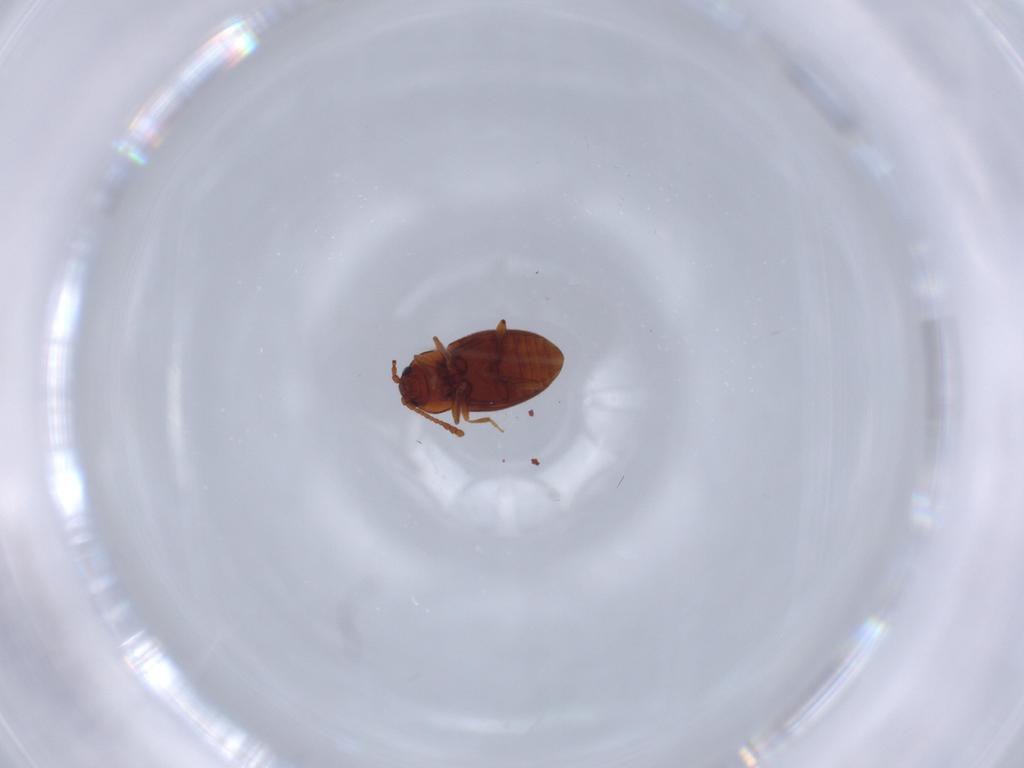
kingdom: Animalia
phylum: Arthropoda
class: Insecta
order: Coleoptera
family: Cryptophagidae
